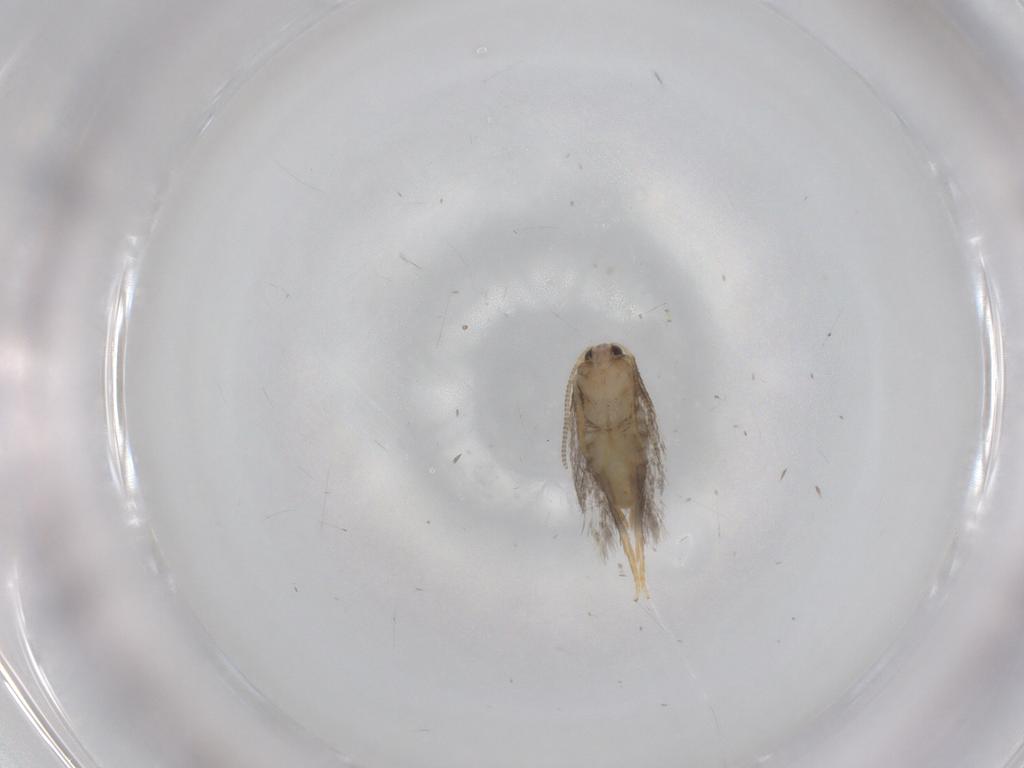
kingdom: Animalia
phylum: Arthropoda
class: Insecta
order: Lepidoptera
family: Nepticulidae
